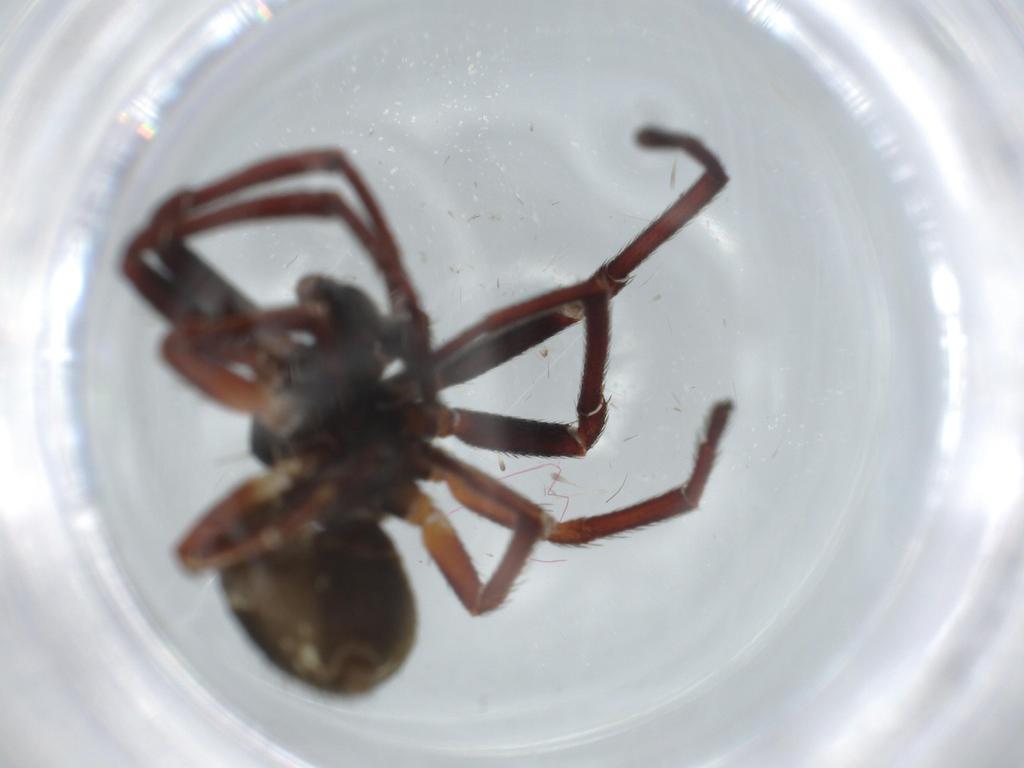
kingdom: Animalia
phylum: Arthropoda
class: Arachnida
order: Araneae
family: Thomisidae
